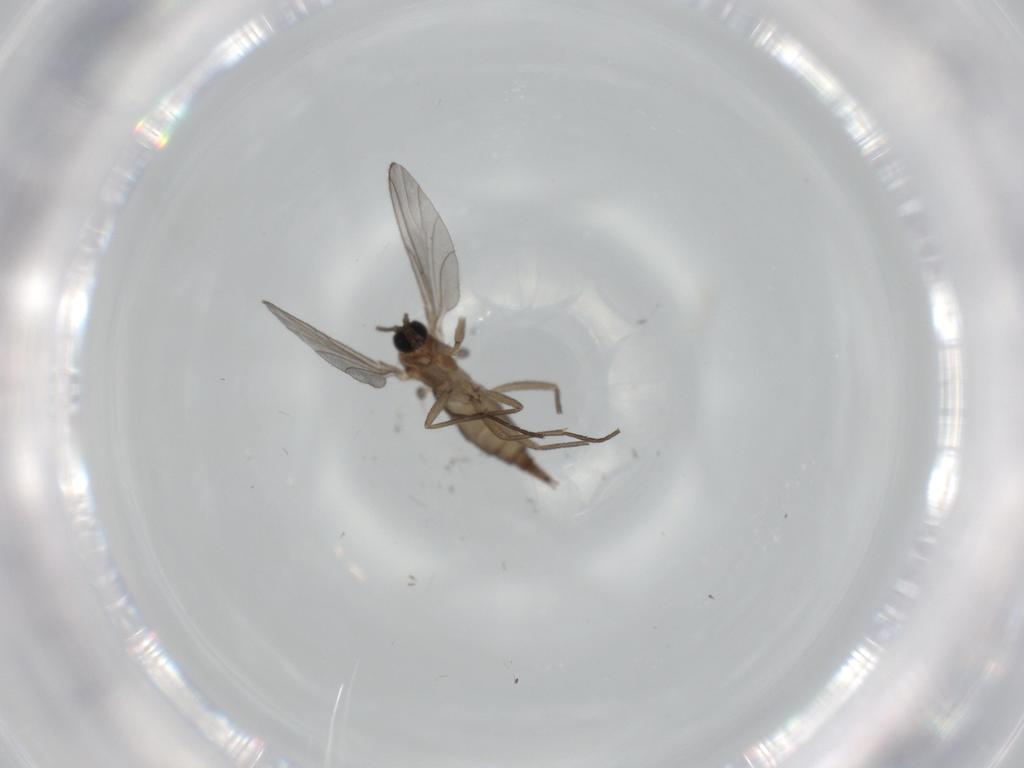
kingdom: Animalia
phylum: Arthropoda
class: Insecta
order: Diptera
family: Sciaridae
